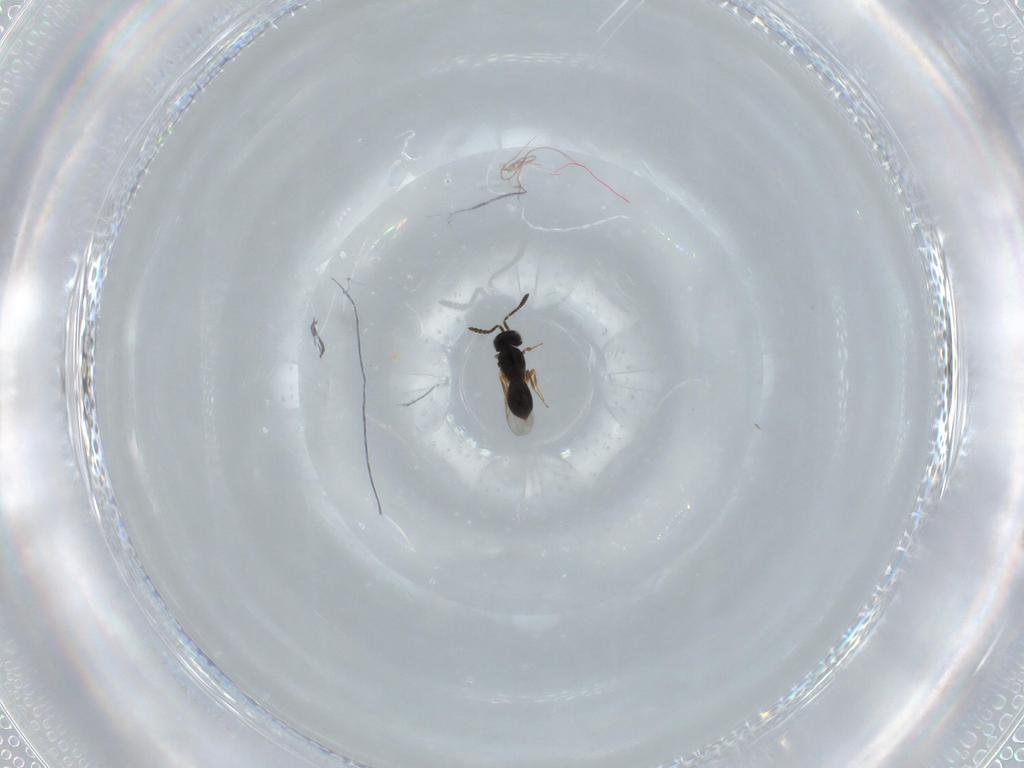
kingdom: Animalia
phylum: Arthropoda
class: Insecta
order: Hymenoptera
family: Scelionidae
